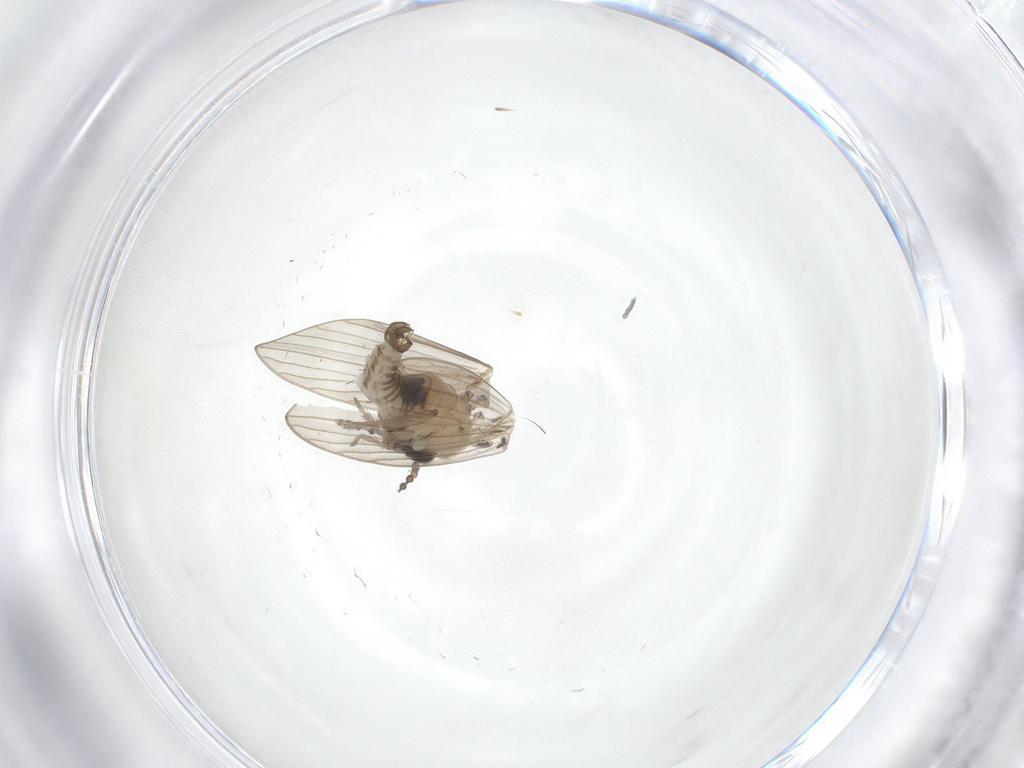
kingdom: Animalia
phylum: Arthropoda
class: Insecta
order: Diptera
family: Psychodidae
